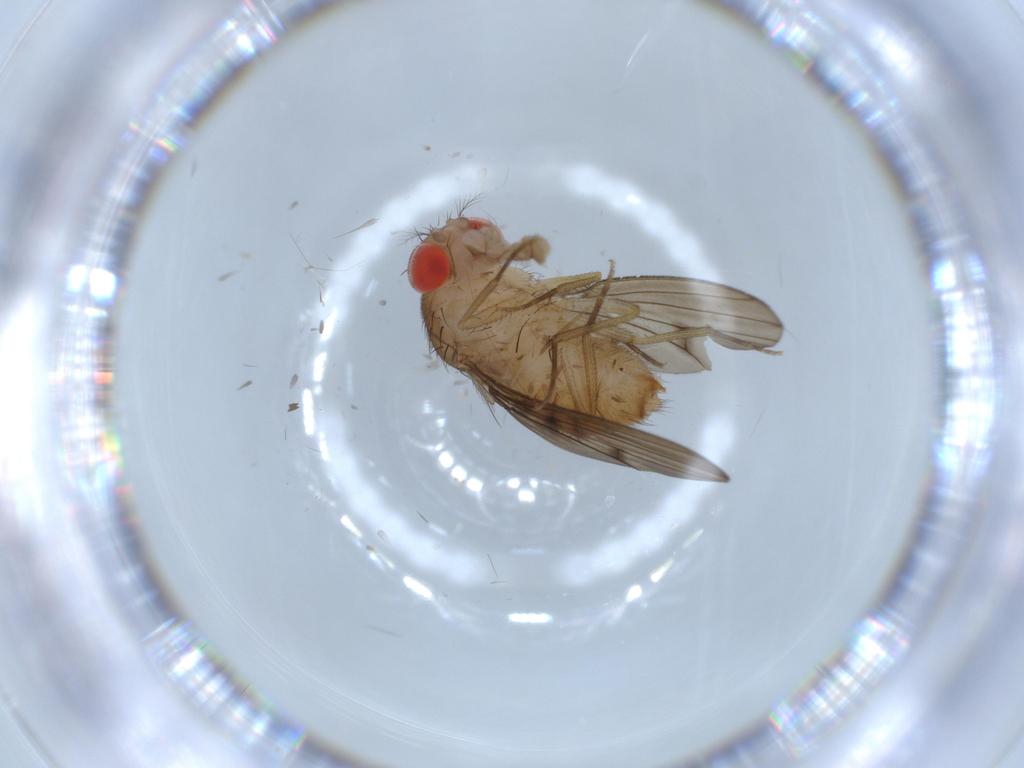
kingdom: Animalia
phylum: Arthropoda
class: Insecta
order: Diptera
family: Drosophilidae
